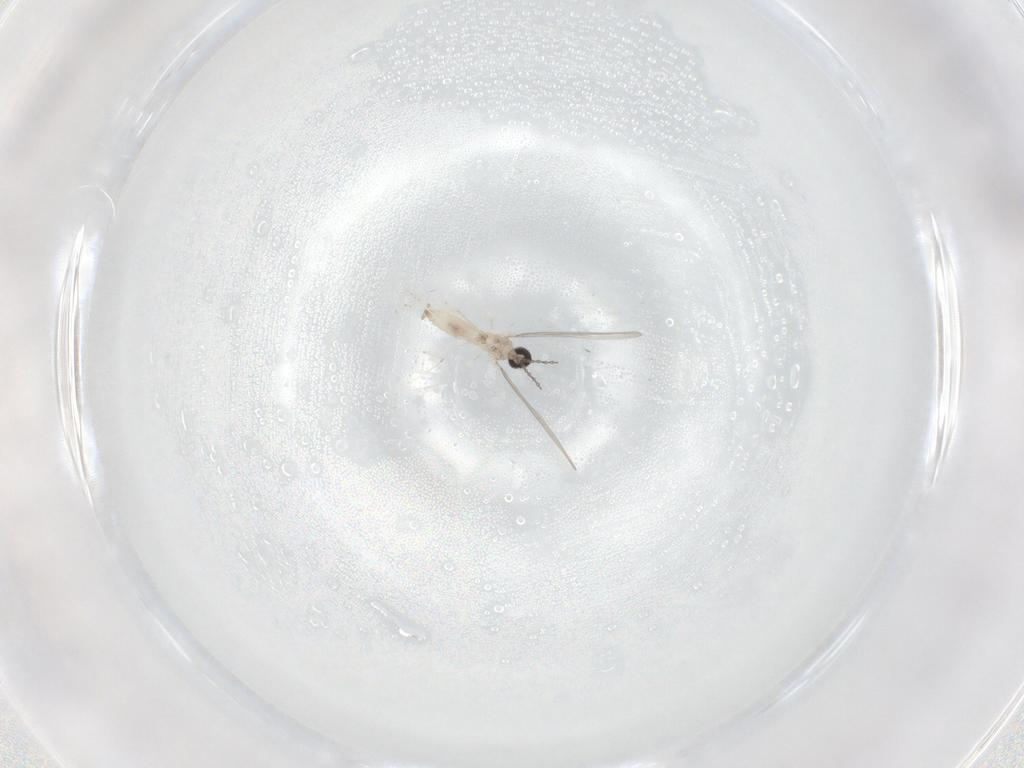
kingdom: Animalia
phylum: Arthropoda
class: Insecta
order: Diptera
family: Cecidomyiidae
